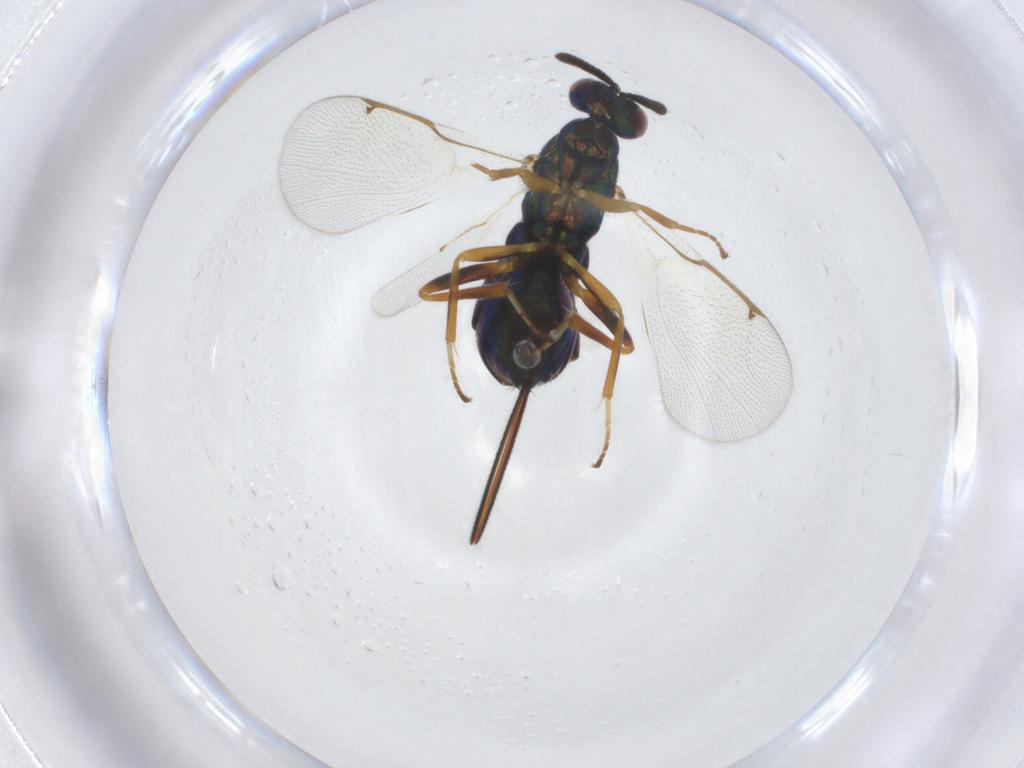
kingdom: Animalia
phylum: Arthropoda
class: Insecta
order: Hymenoptera
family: Torymidae
